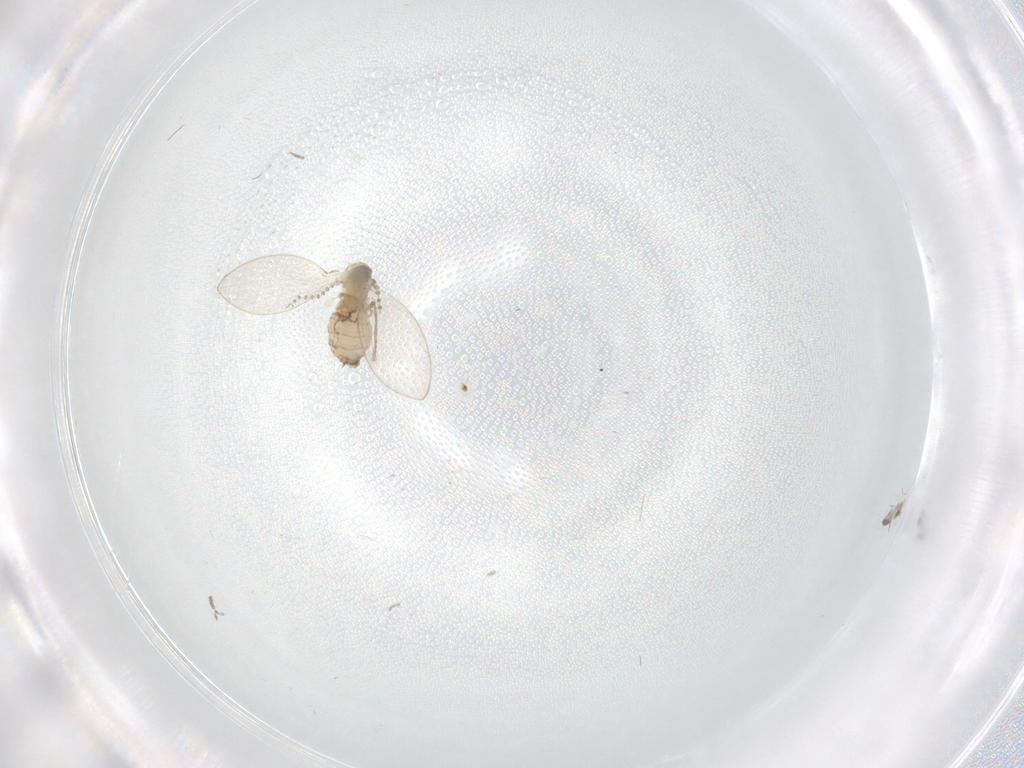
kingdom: Animalia
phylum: Arthropoda
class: Insecta
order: Diptera
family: Psychodidae
